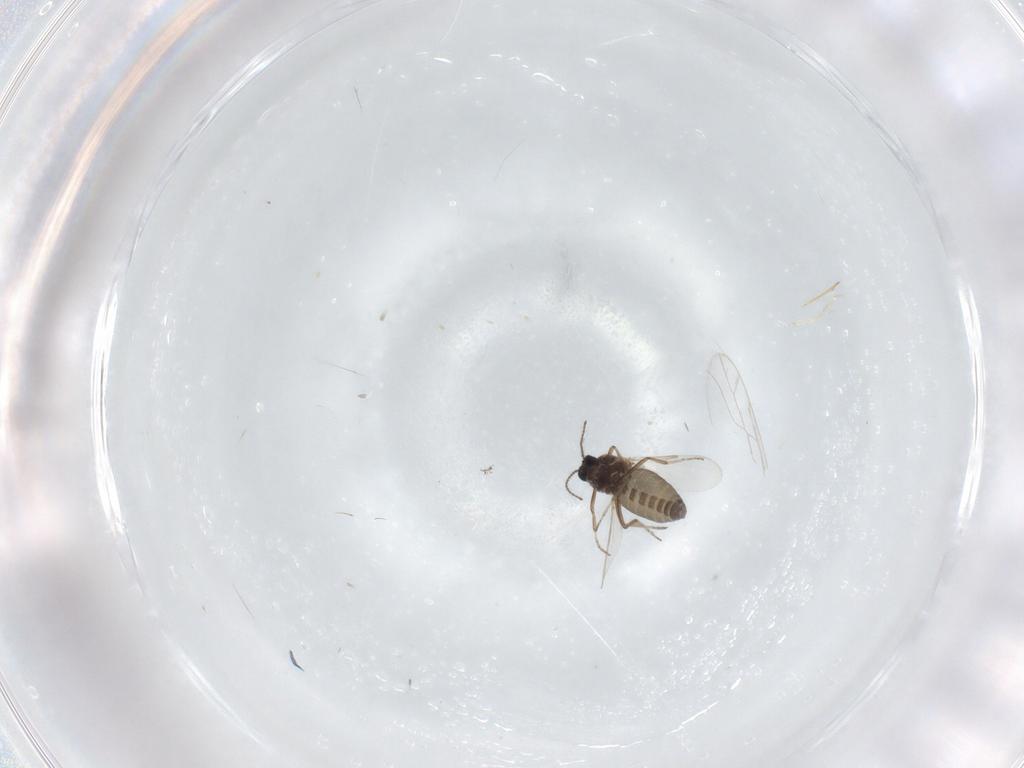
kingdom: Animalia
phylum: Arthropoda
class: Insecta
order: Diptera
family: Ceratopogonidae
